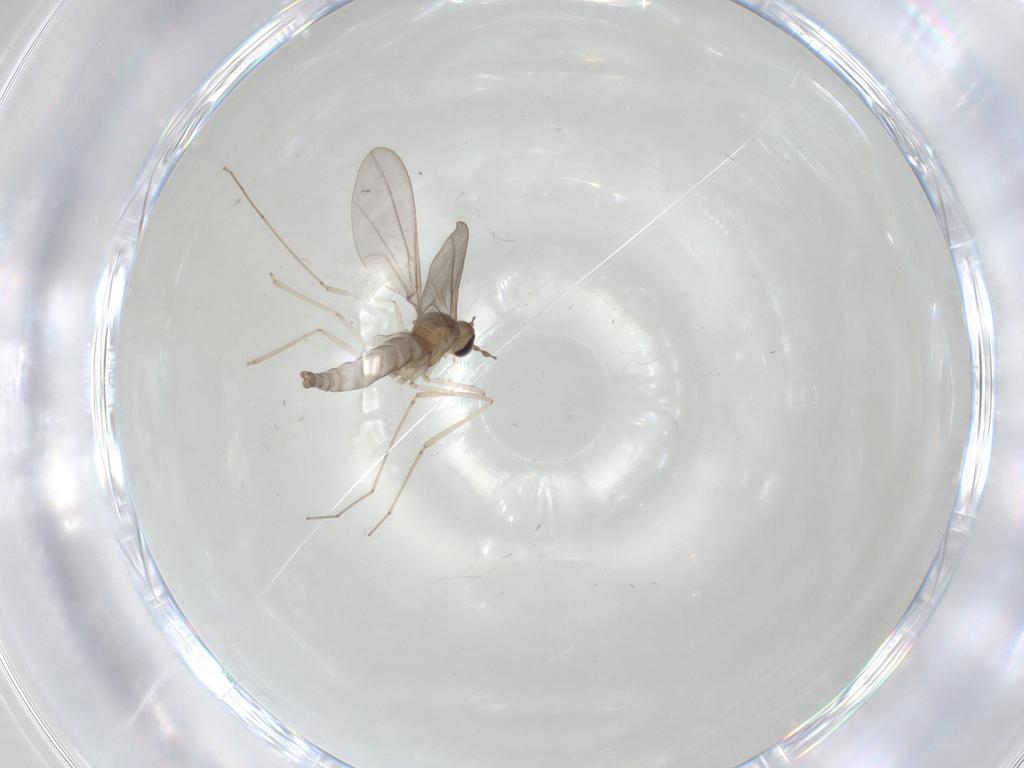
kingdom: Animalia
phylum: Arthropoda
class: Insecta
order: Diptera
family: Cecidomyiidae
